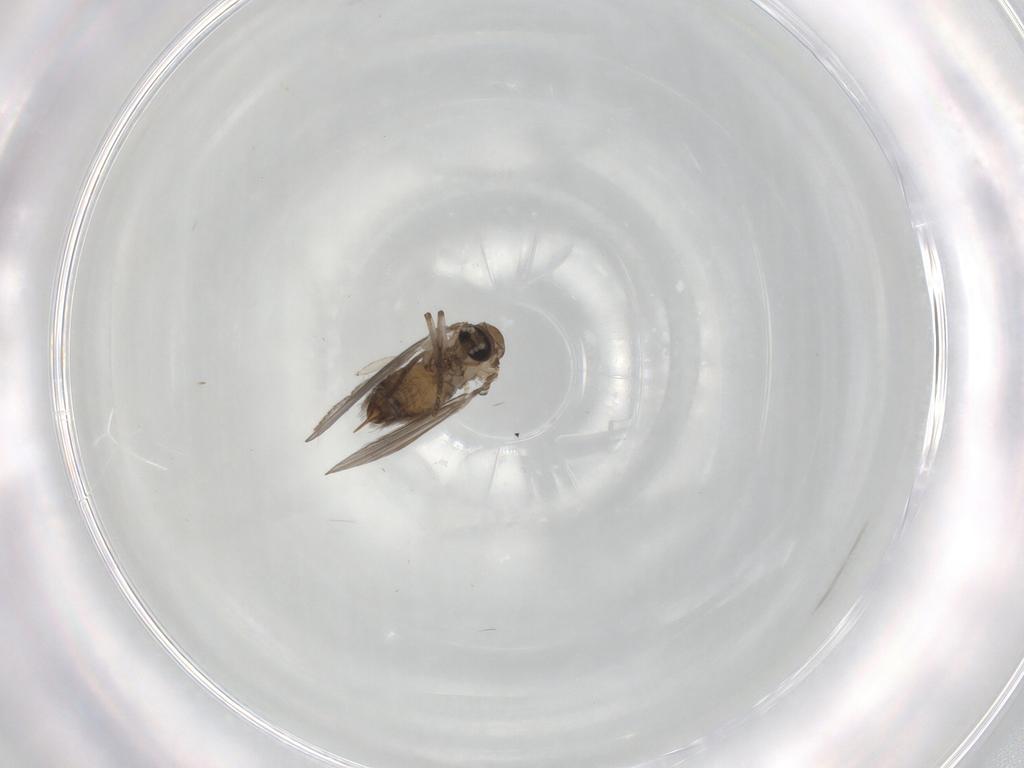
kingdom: Animalia
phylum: Arthropoda
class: Insecta
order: Diptera
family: Psychodidae
